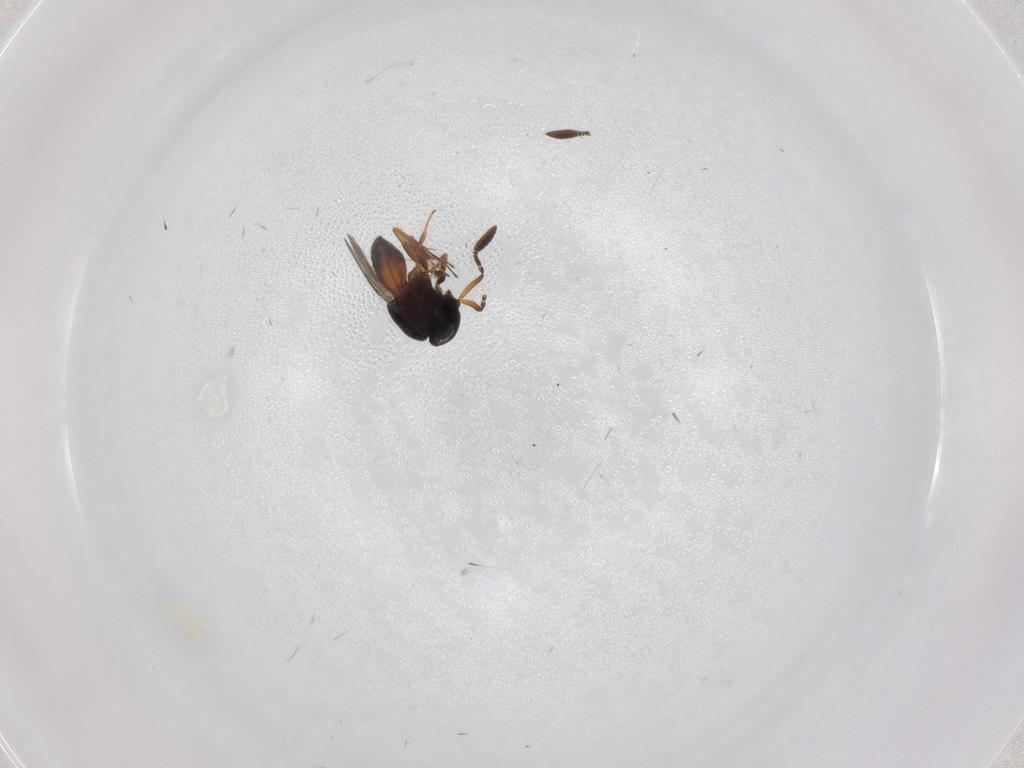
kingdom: Animalia
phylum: Arthropoda
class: Insecta
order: Hymenoptera
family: Scelionidae
